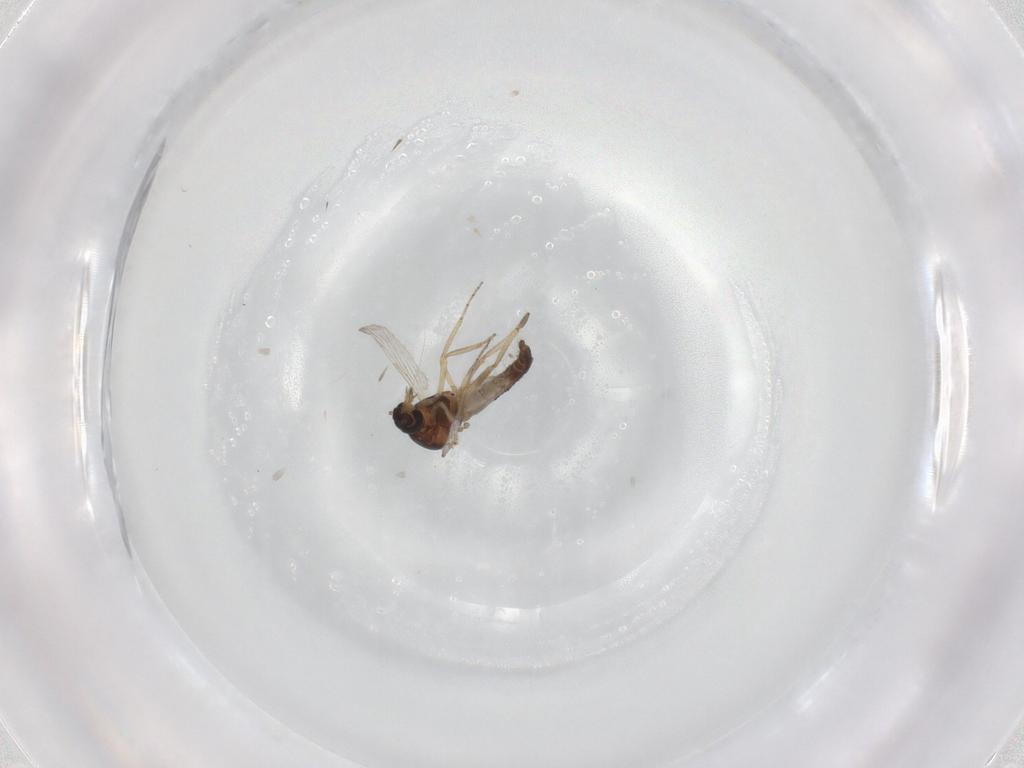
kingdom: Animalia
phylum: Arthropoda
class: Insecta
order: Diptera
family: Ceratopogonidae
